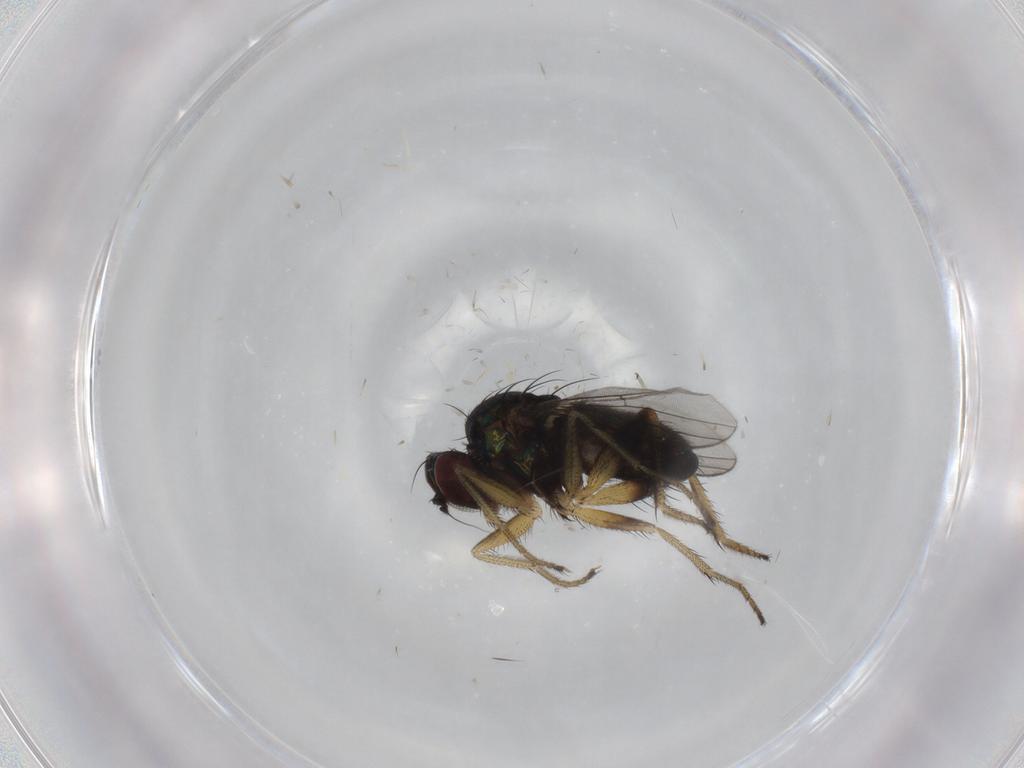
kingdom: Animalia
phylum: Arthropoda
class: Insecta
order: Diptera
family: Dolichopodidae
